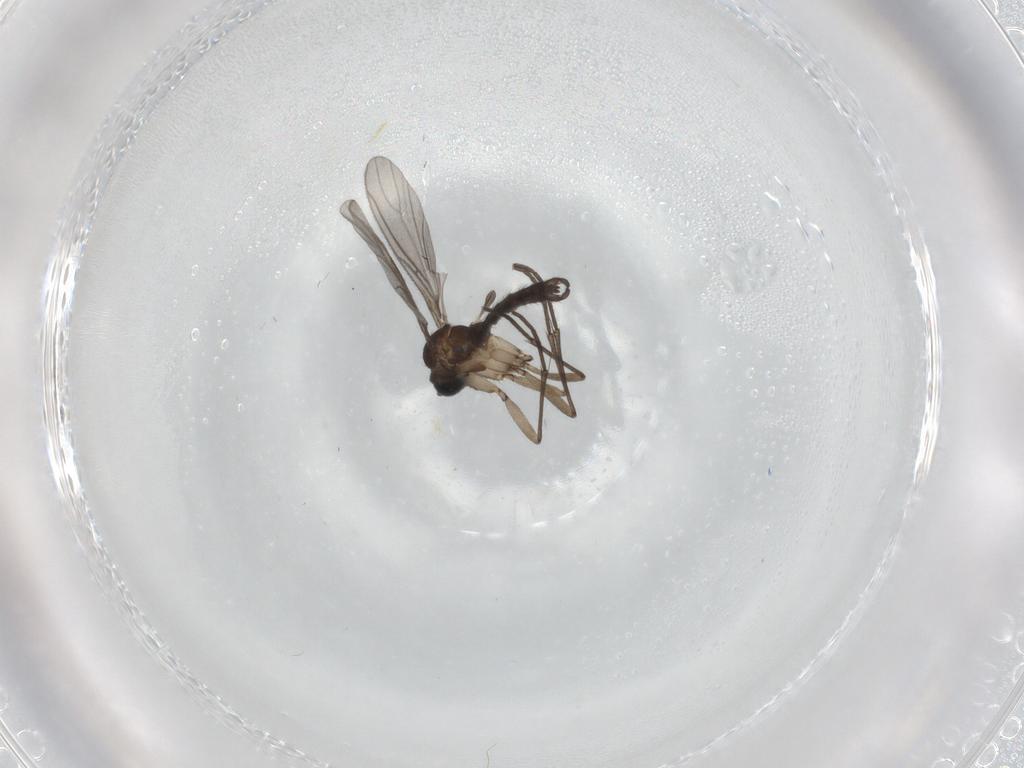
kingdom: Animalia
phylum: Arthropoda
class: Insecta
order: Diptera
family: Sciaridae
